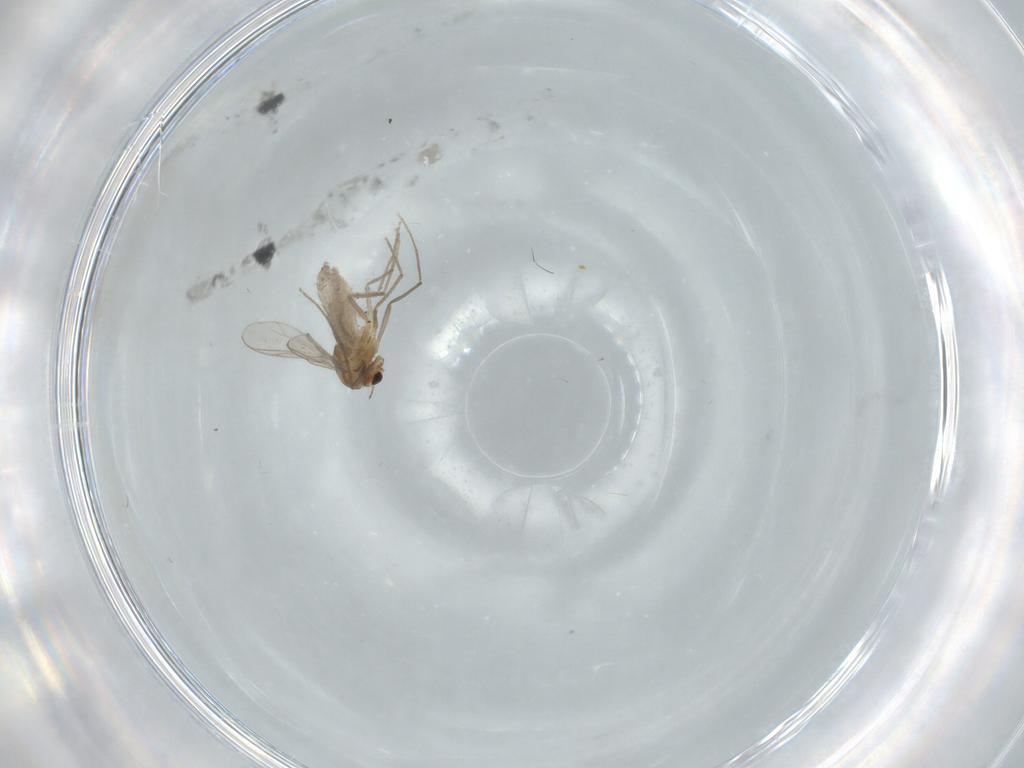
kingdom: Animalia
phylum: Arthropoda
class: Insecta
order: Diptera
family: Chironomidae
